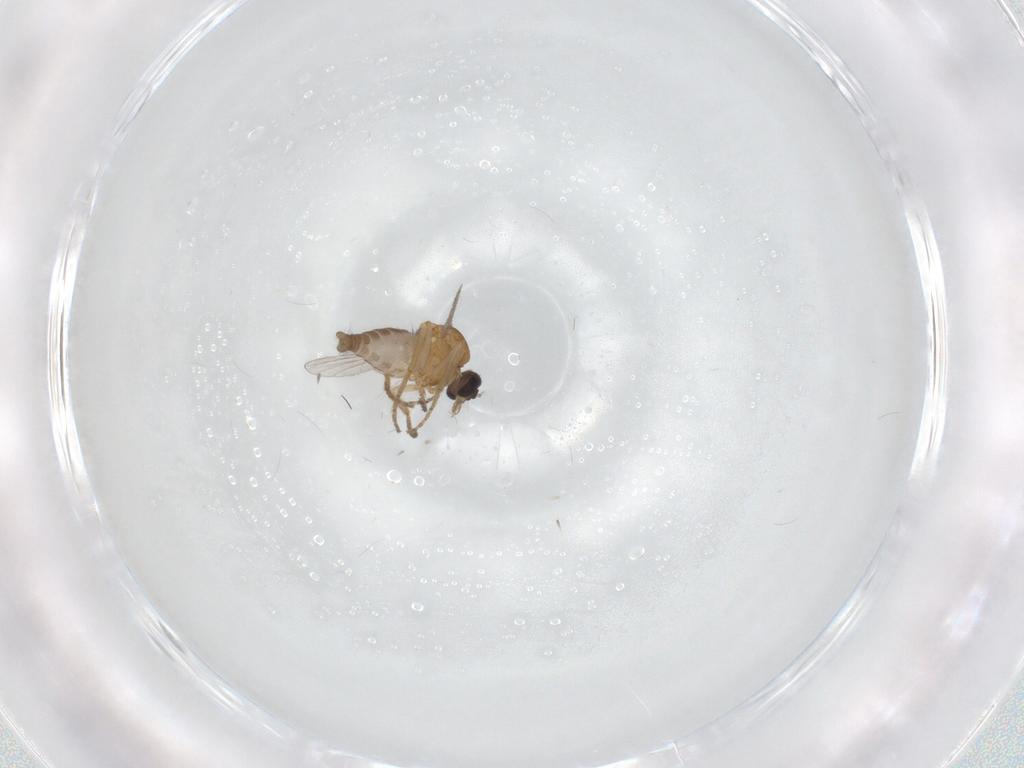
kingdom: Animalia
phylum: Arthropoda
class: Insecta
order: Diptera
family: Ceratopogonidae
